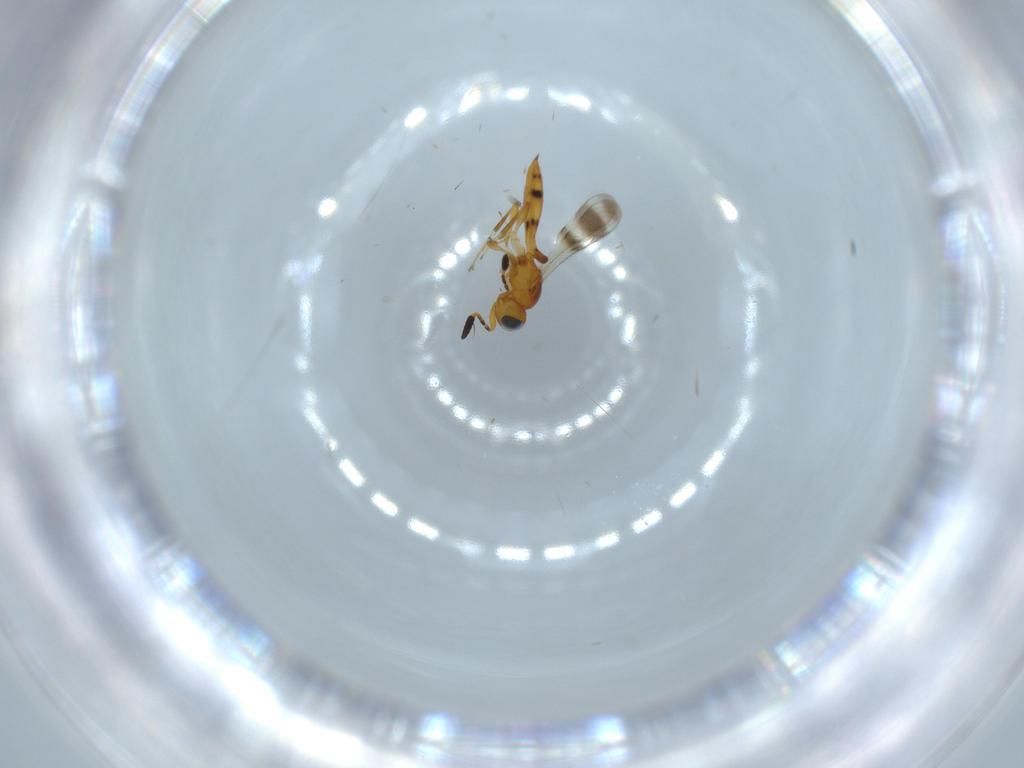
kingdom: Animalia
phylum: Arthropoda
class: Insecta
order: Hymenoptera
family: Scelionidae
